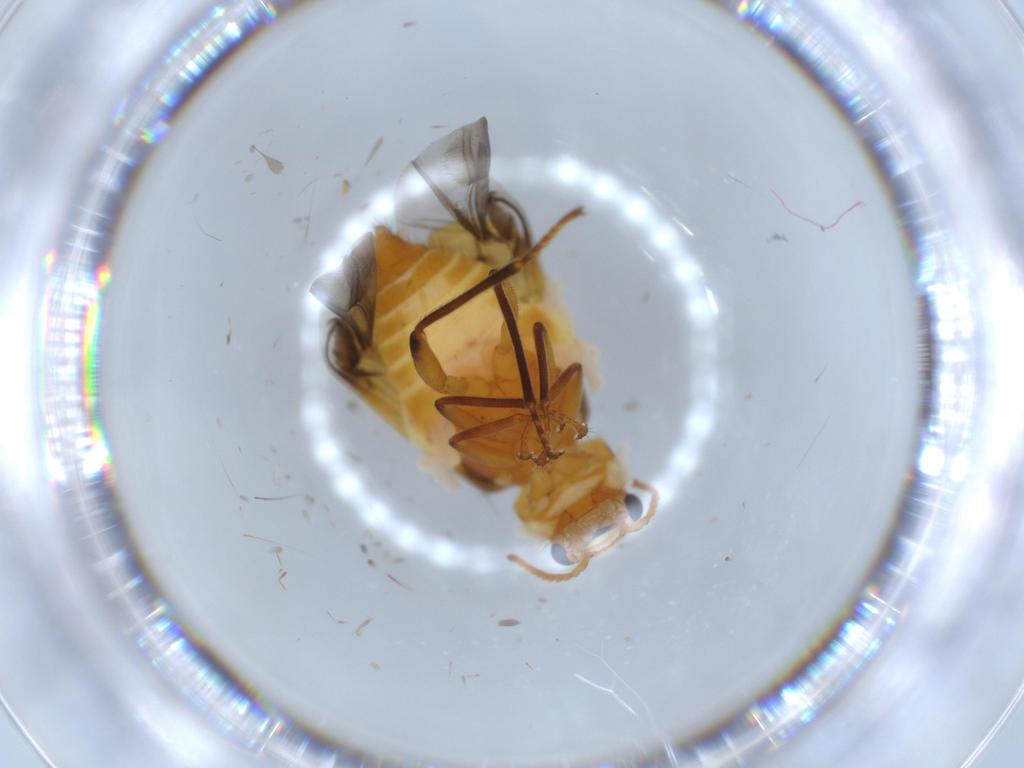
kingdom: Animalia
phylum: Arthropoda
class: Insecta
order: Coleoptera
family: Melyridae
